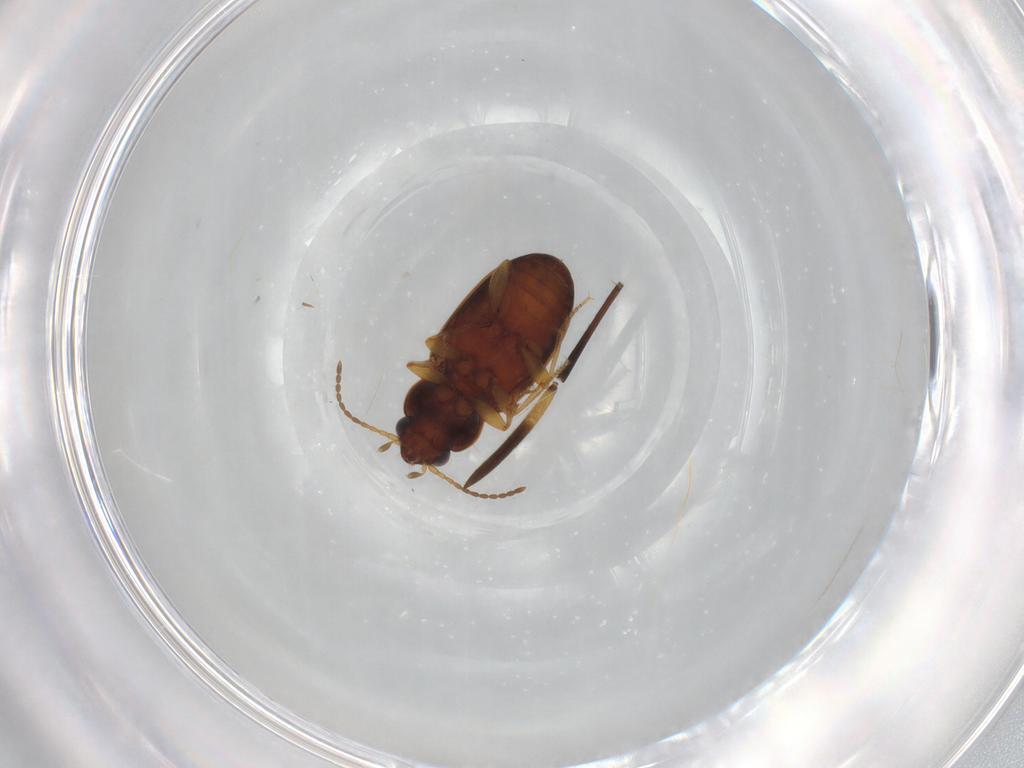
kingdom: Animalia
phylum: Arthropoda
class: Insecta
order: Coleoptera
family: Carabidae
